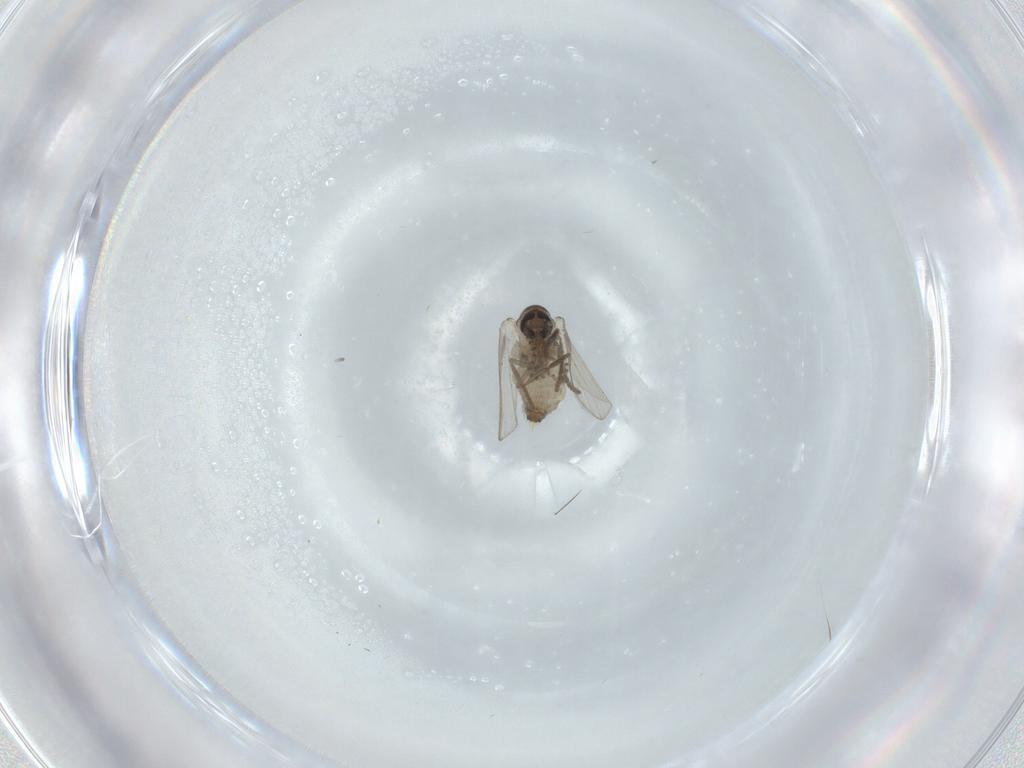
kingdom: Animalia
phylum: Arthropoda
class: Insecta
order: Diptera
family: Psychodidae
